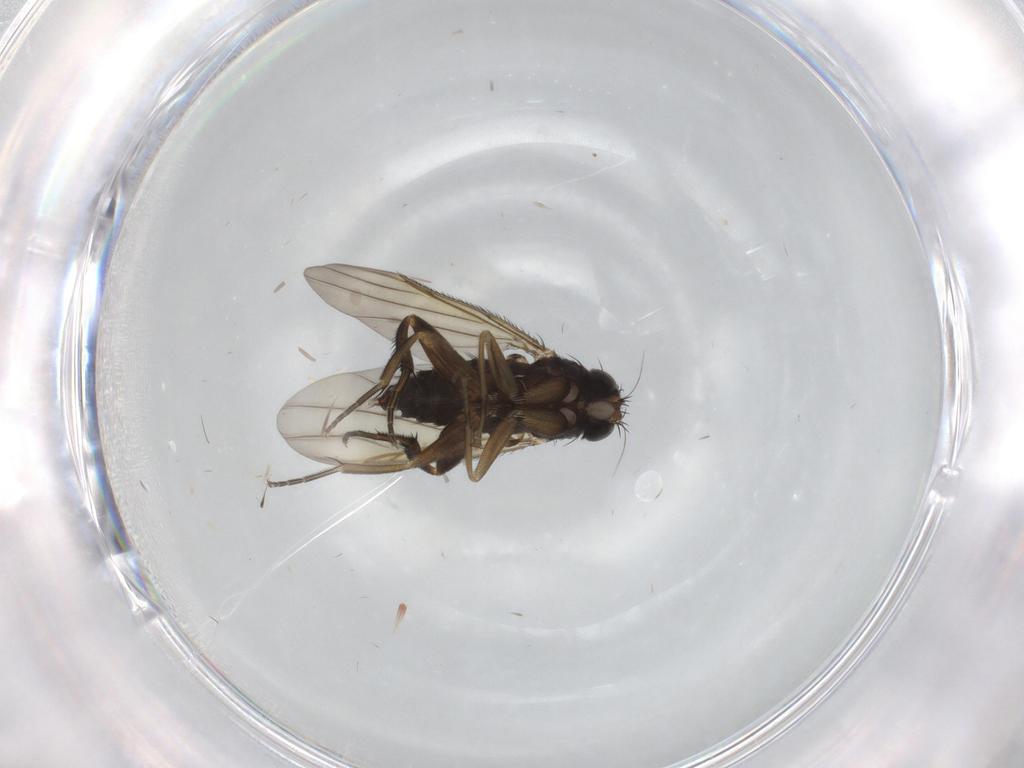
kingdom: Animalia
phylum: Arthropoda
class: Insecta
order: Diptera
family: Phoridae
